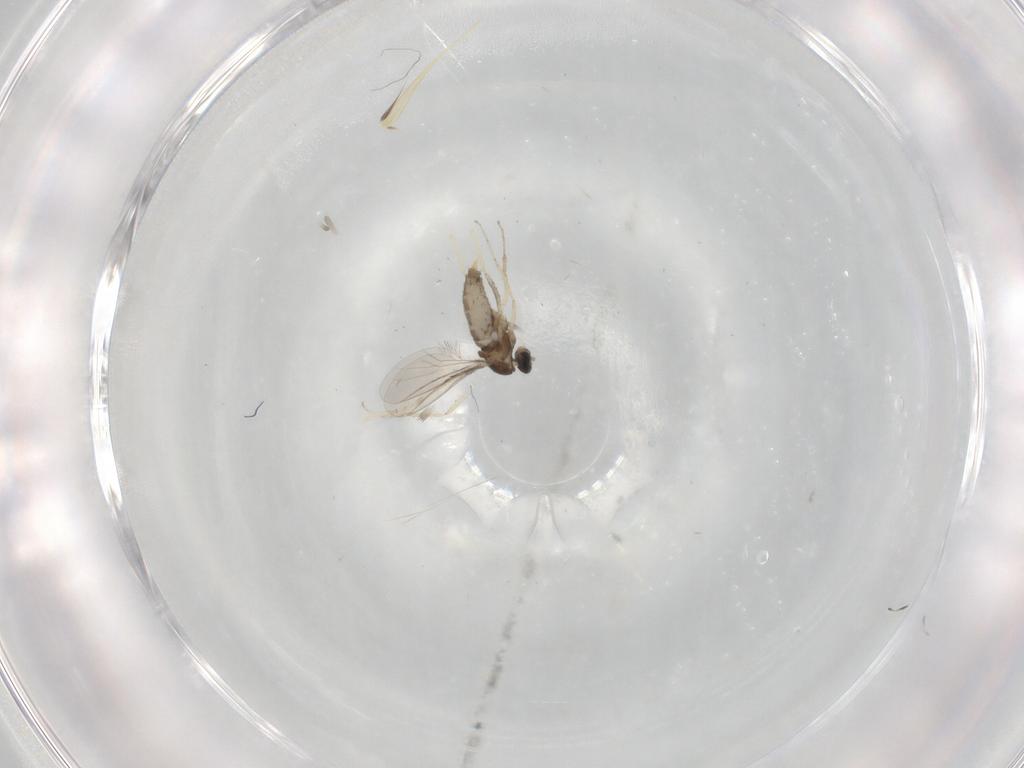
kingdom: Animalia
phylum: Arthropoda
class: Insecta
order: Diptera
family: Cecidomyiidae
